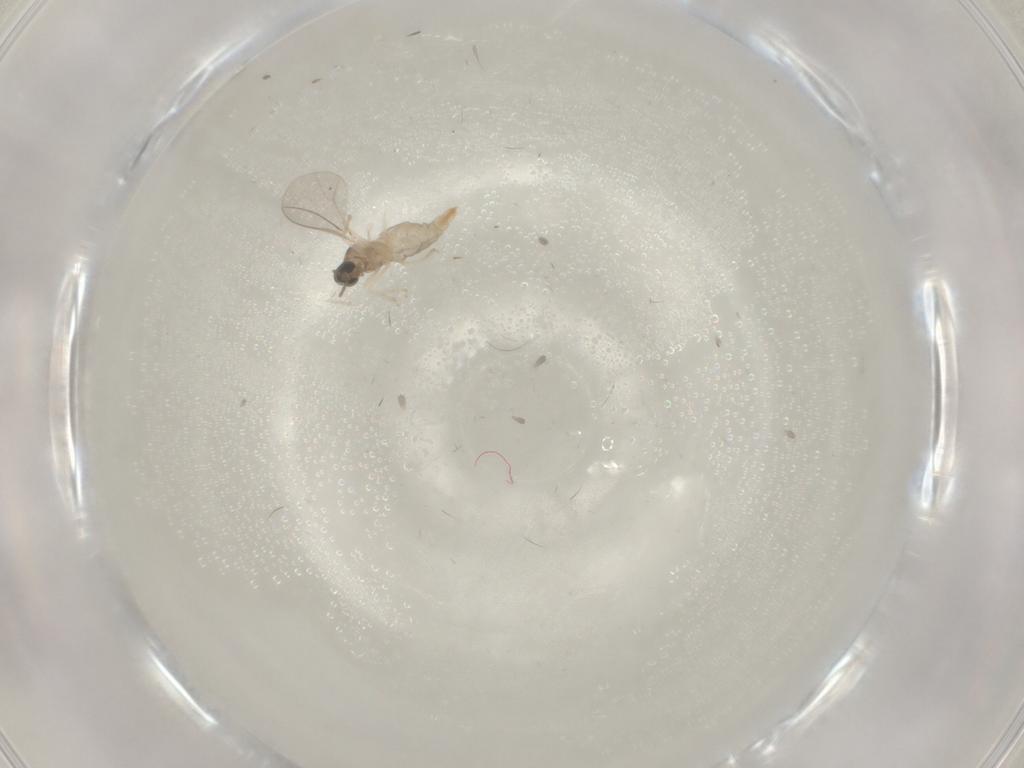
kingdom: Animalia
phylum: Arthropoda
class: Insecta
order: Diptera
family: Cecidomyiidae
